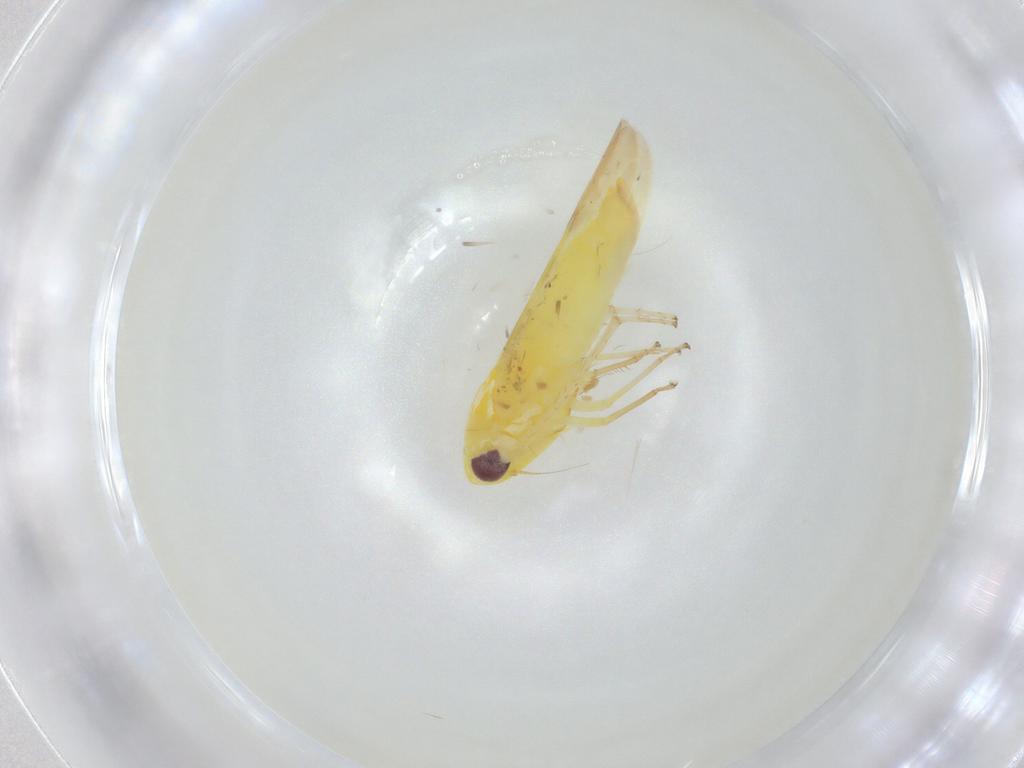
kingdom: Animalia
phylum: Arthropoda
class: Insecta
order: Hemiptera
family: Cicadellidae
